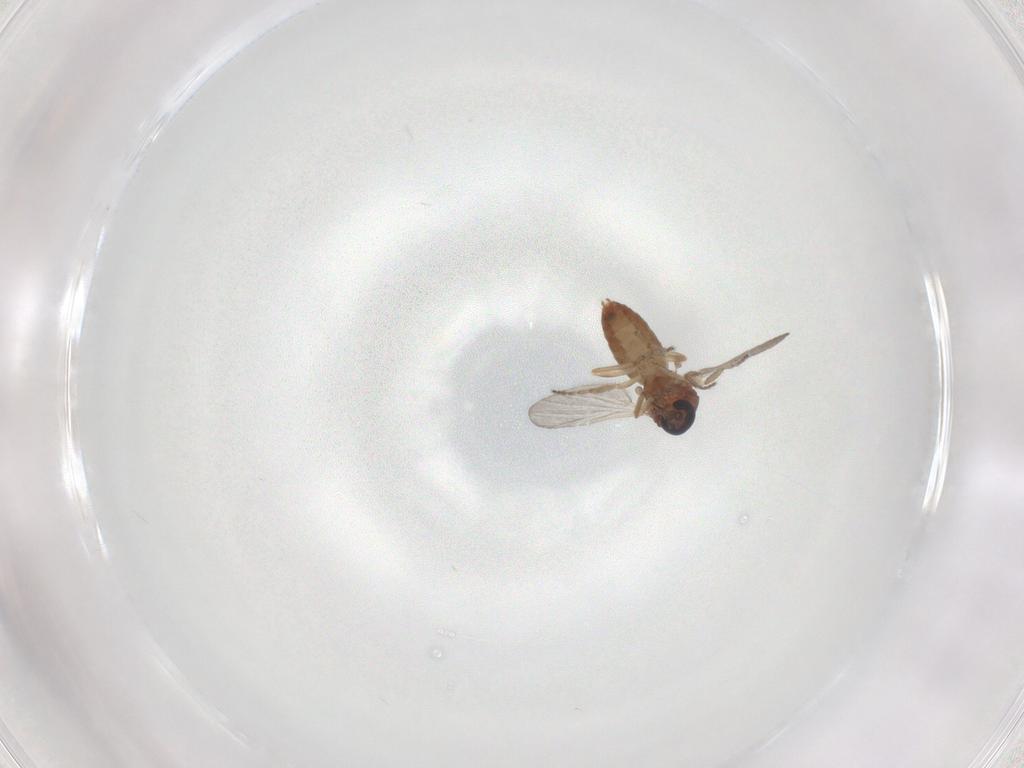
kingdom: Animalia
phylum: Arthropoda
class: Insecta
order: Diptera
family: Ceratopogonidae
